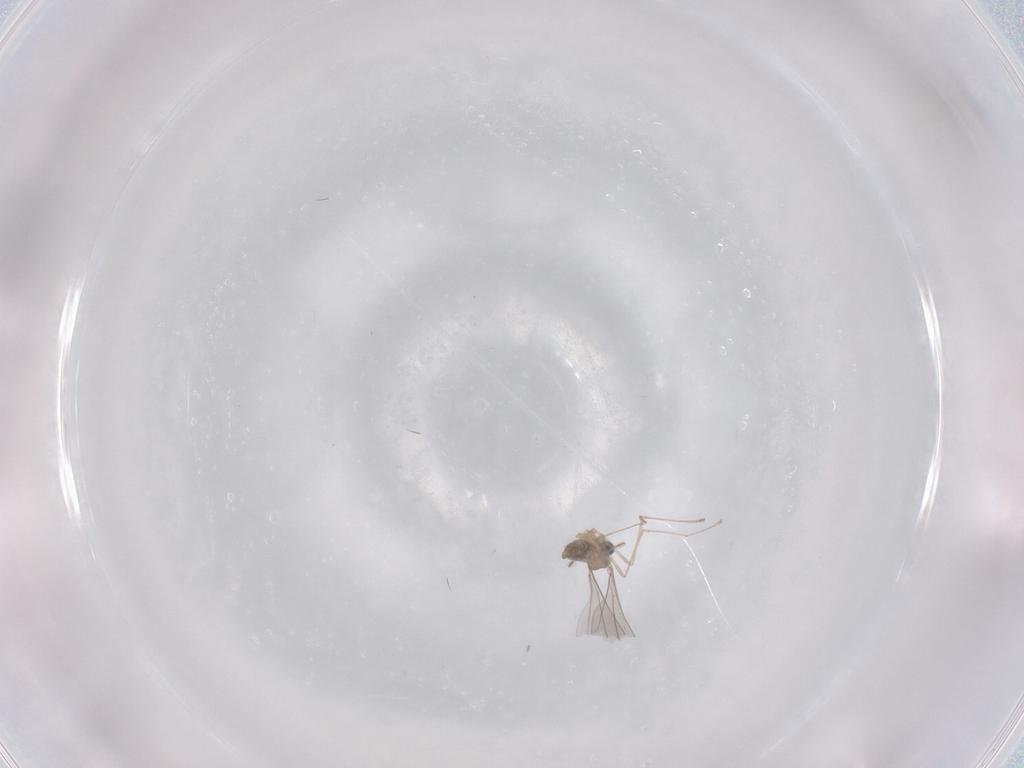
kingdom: Animalia
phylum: Arthropoda
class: Insecta
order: Diptera
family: Cecidomyiidae
